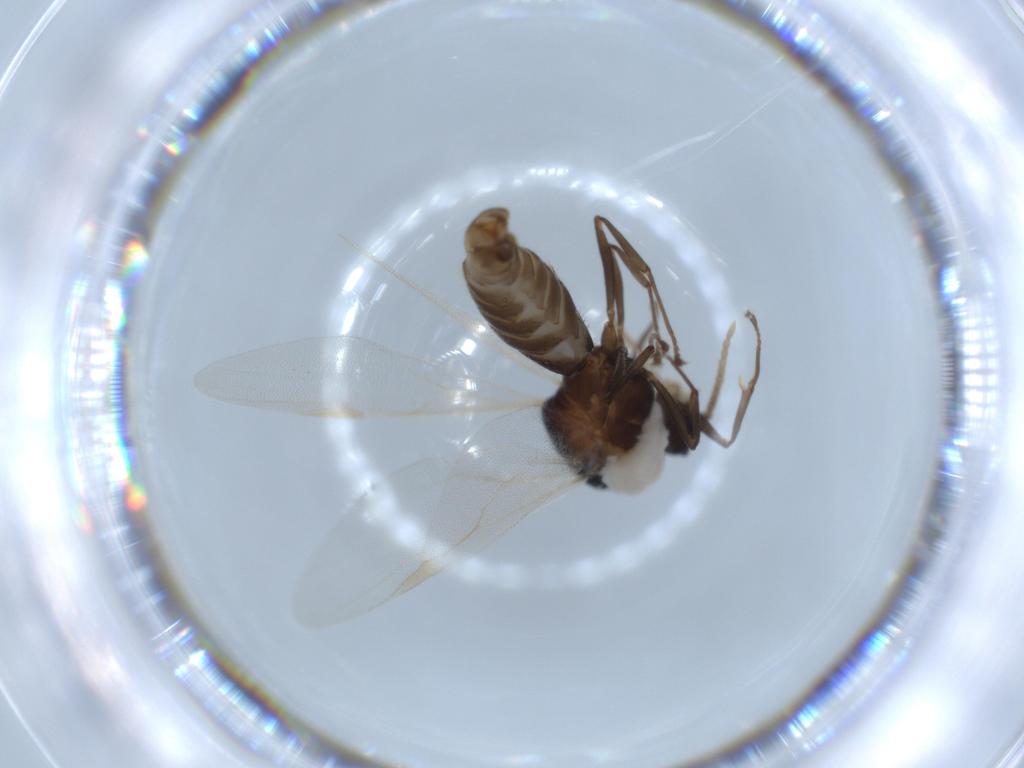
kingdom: Animalia
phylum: Arthropoda
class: Insecta
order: Hymenoptera
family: Formicidae
